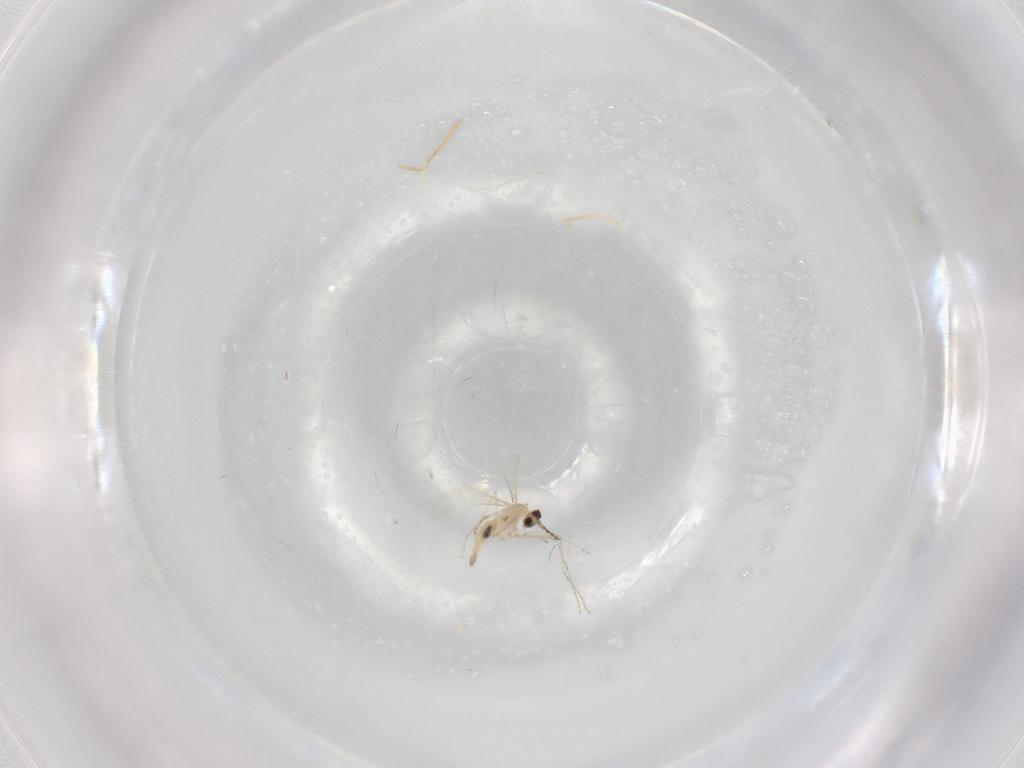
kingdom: Animalia
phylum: Arthropoda
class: Insecta
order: Diptera
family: Cecidomyiidae
